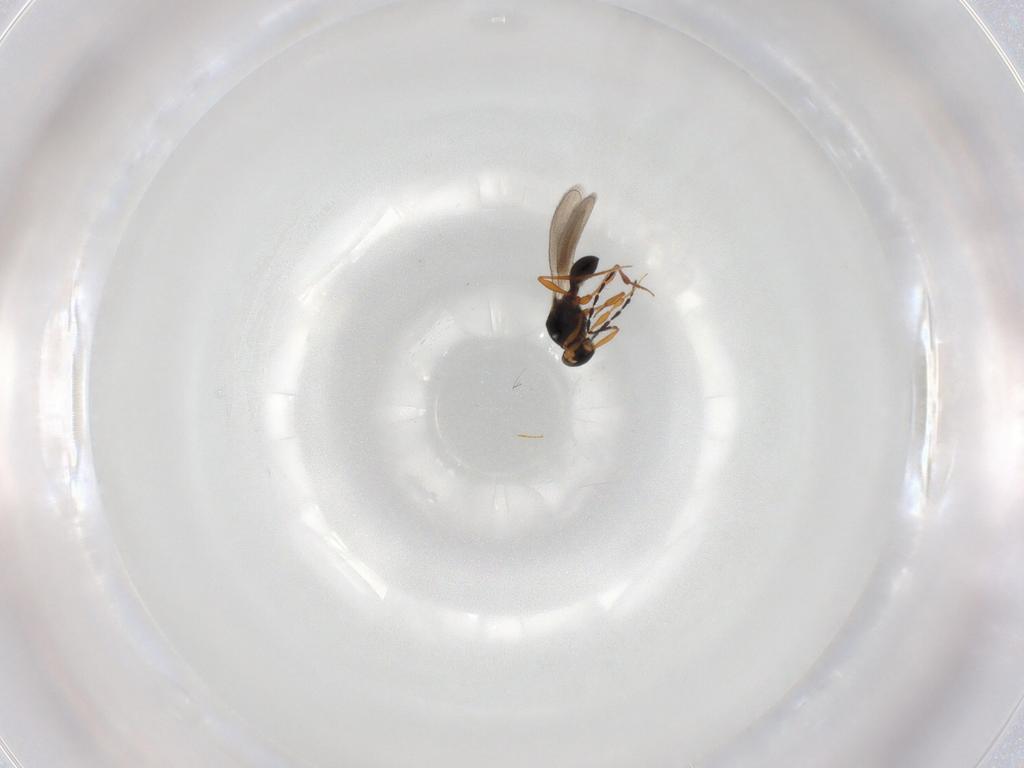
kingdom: Animalia
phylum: Arthropoda
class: Insecta
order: Hymenoptera
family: Platygastridae
